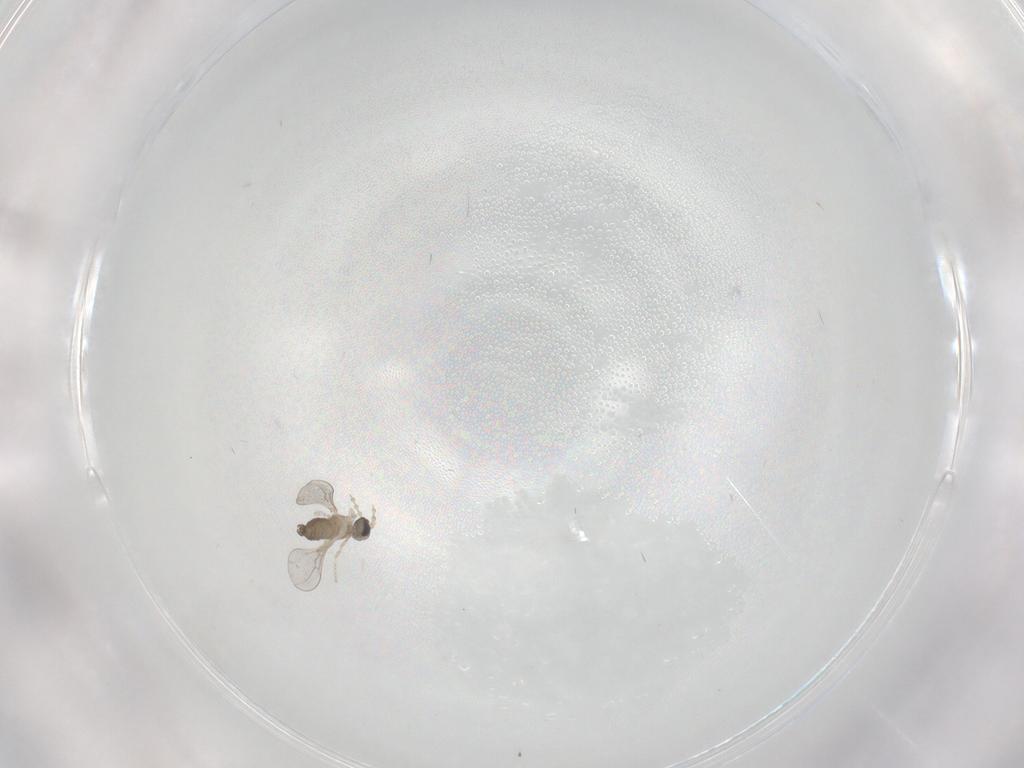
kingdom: Animalia
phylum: Arthropoda
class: Insecta
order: Diptera
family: Cecidomyiidae
